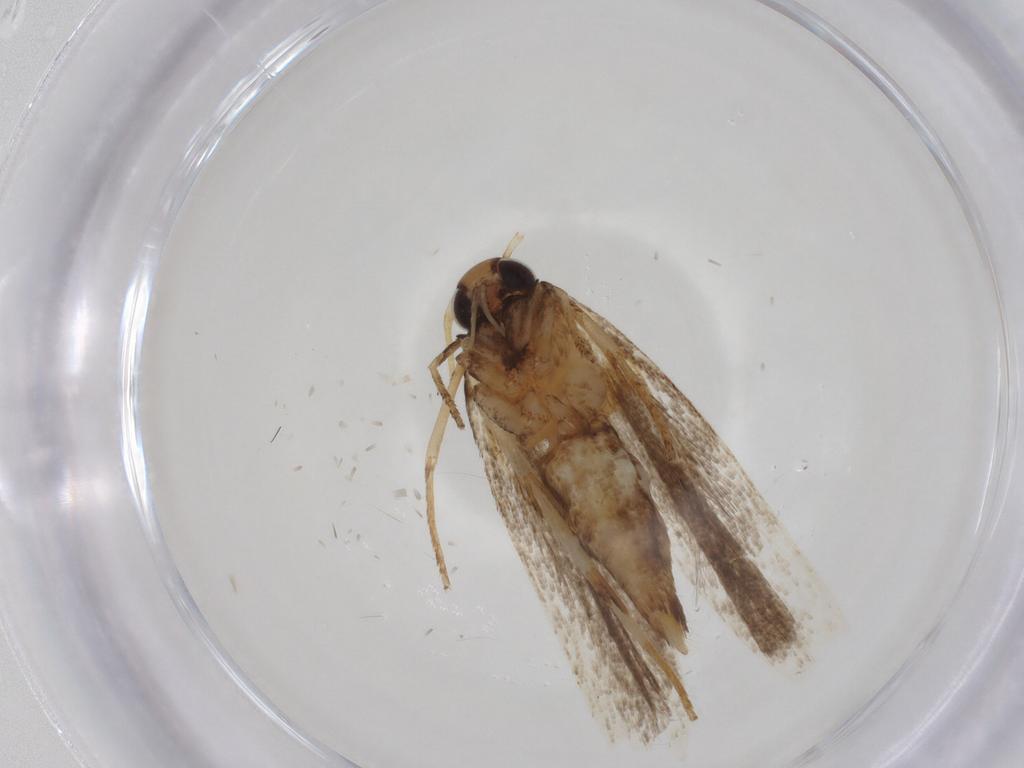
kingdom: Animalia
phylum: Arthropoda
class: Insecta
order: Lepidoptera
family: Gelechiidae
